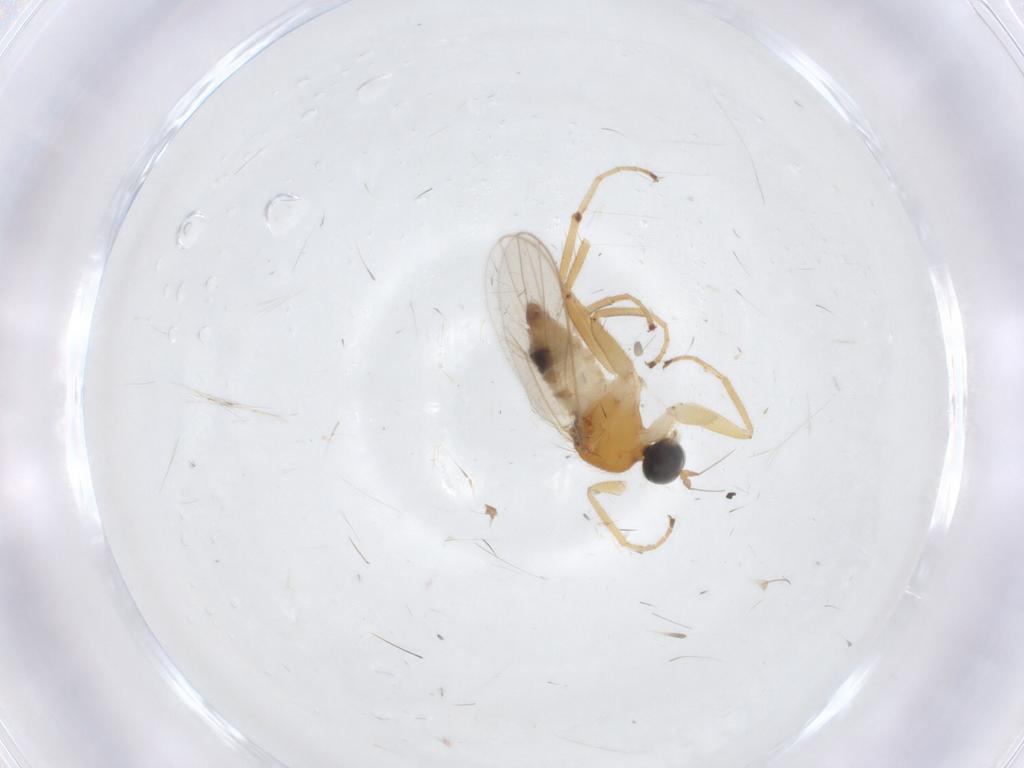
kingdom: Animalia
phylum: Arthropoda
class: Insecta
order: Diptera
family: Hybotidae
